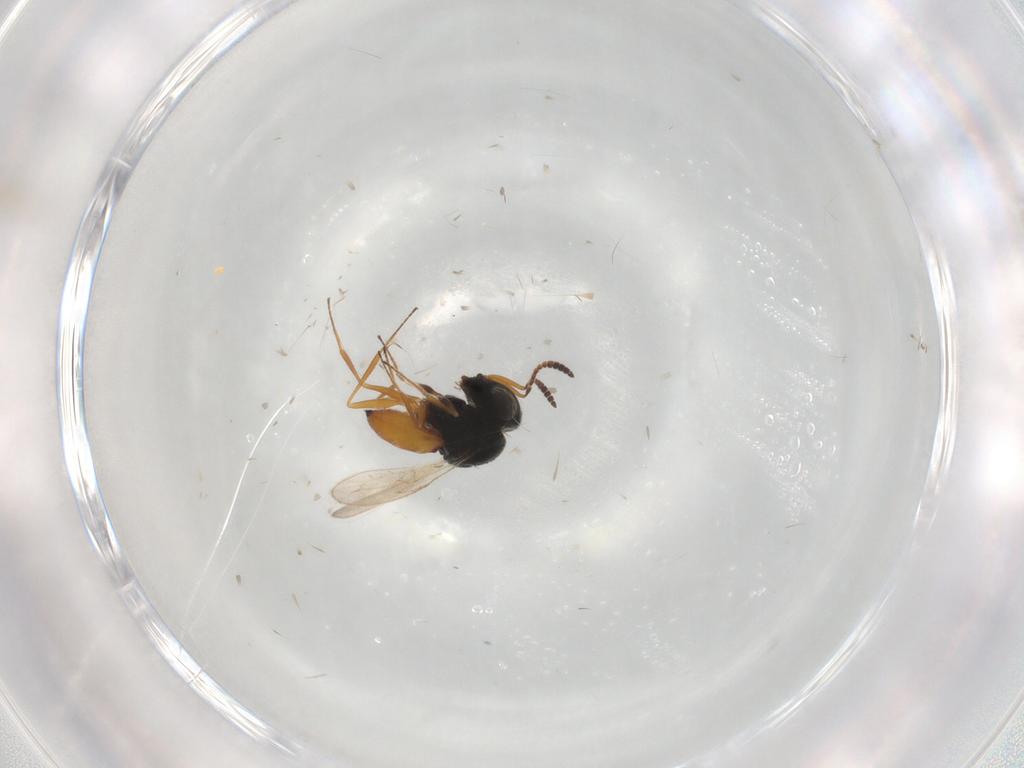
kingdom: Animalia
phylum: Arthropoda
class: Insecta
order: Hymenoptera
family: Scelionidae
